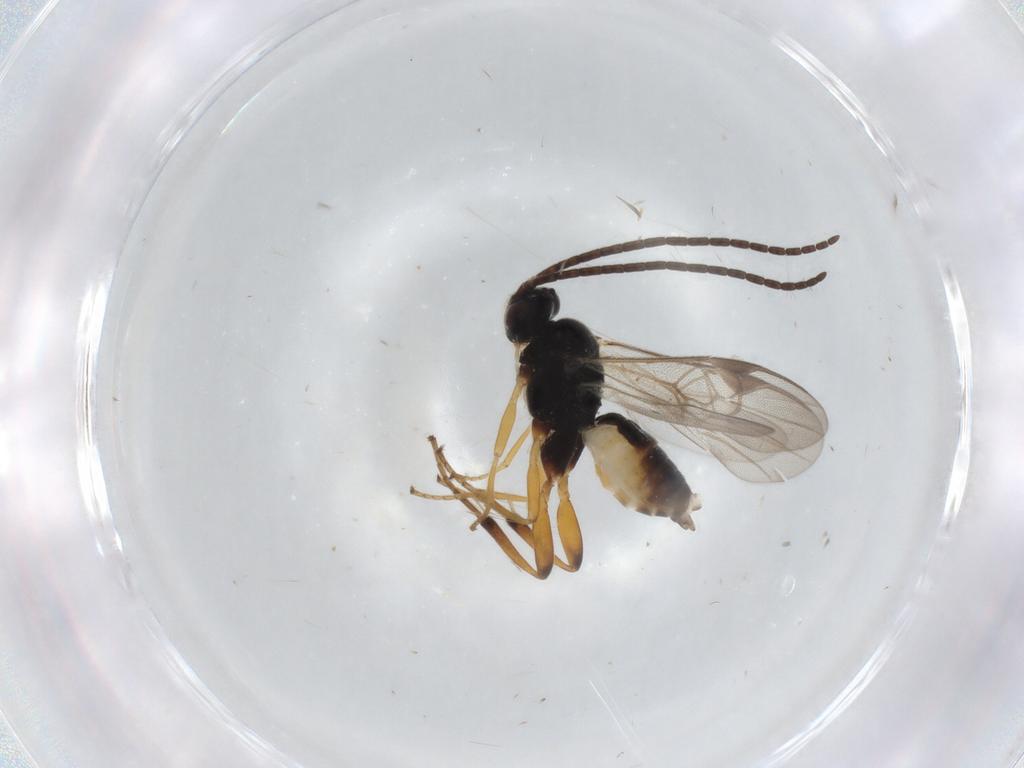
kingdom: Animalia
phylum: Arthropoda
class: Insecta
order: Hymenoptera
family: Braconidae
